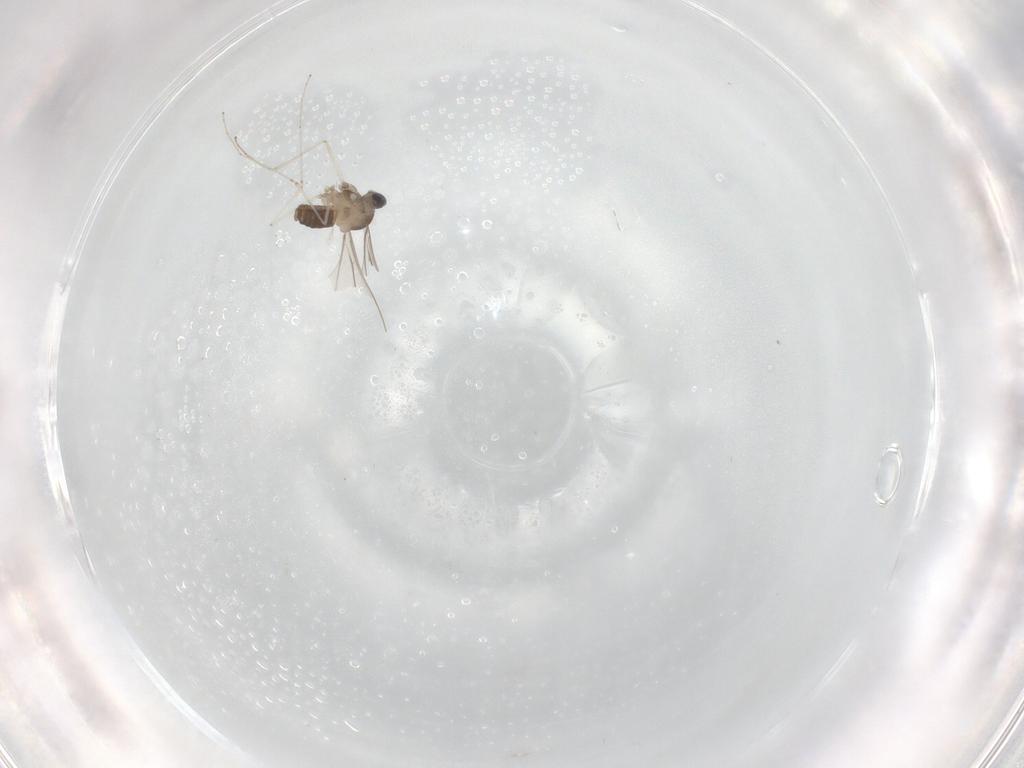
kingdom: Animalia
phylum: Arthropoda
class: Insecta
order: Diptera
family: Cecidomyiidae
